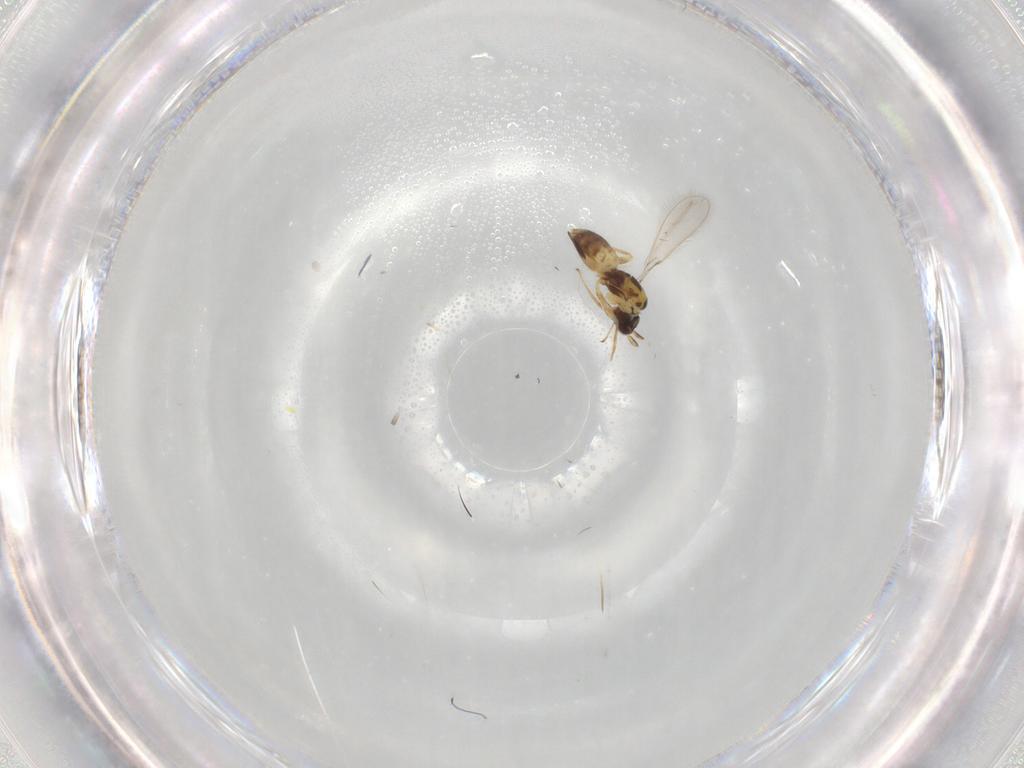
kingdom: Animalia
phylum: Arthropoda
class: Insecta
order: Hymenoptera
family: Mymaridae
